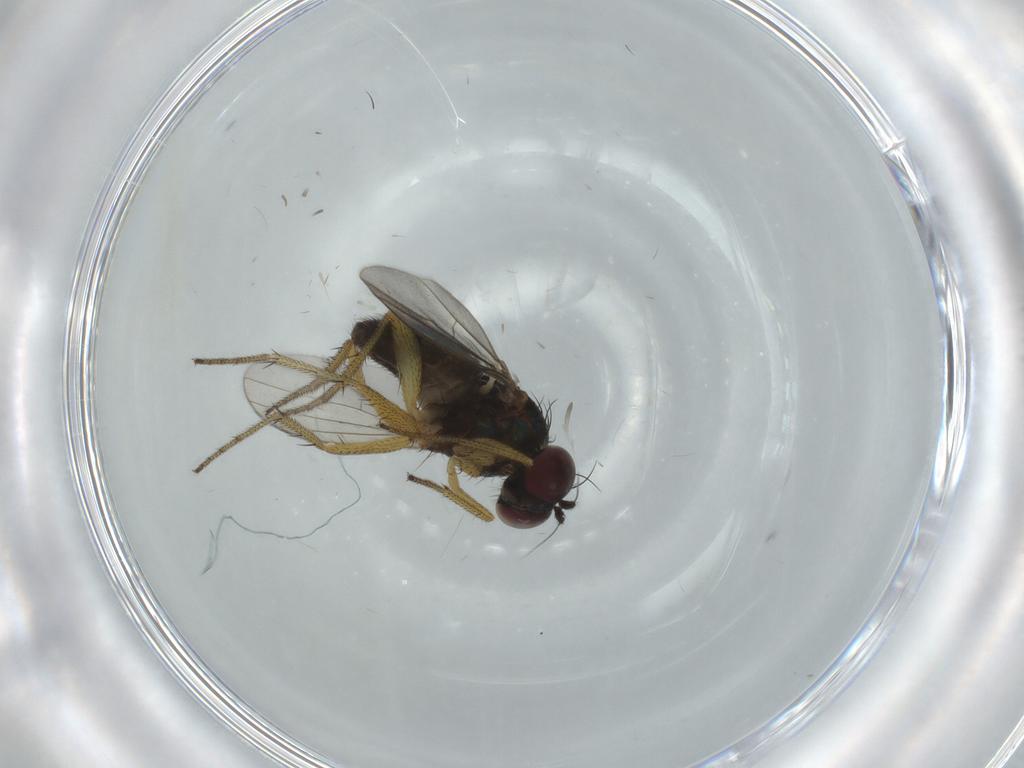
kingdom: Animalia
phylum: Arthropoda
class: Insecta
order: Diptera
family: Dolichopodidae
